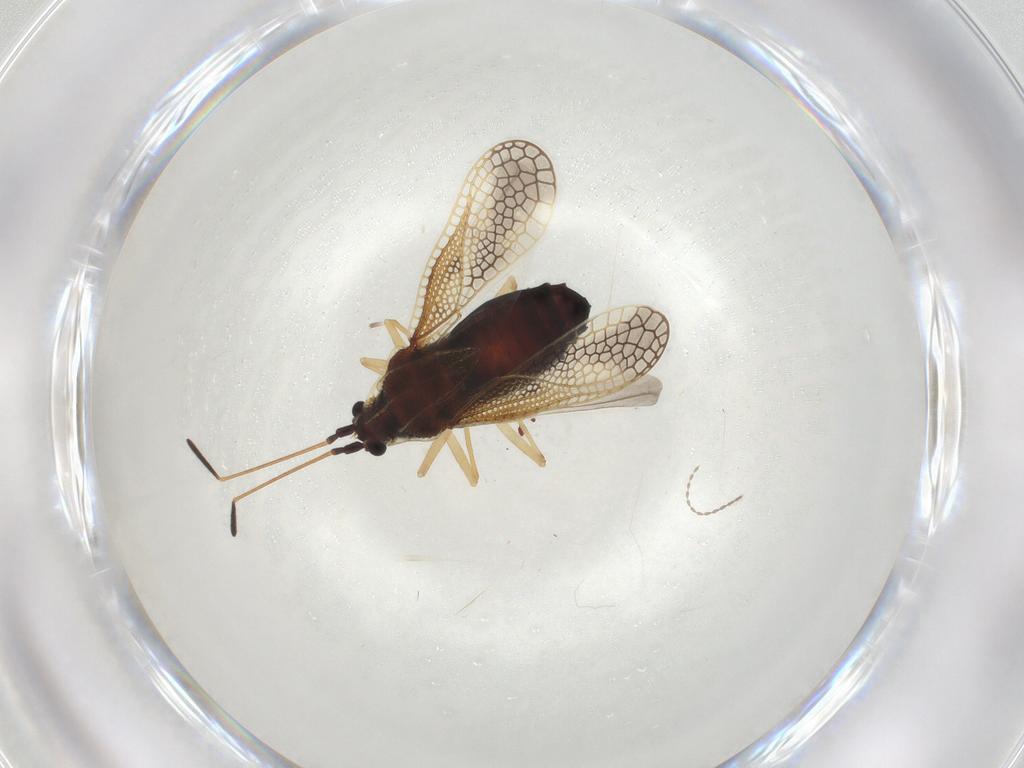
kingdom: Animalia
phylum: Arthropoda
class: Insecta
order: Hemiptera
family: Tingidae
